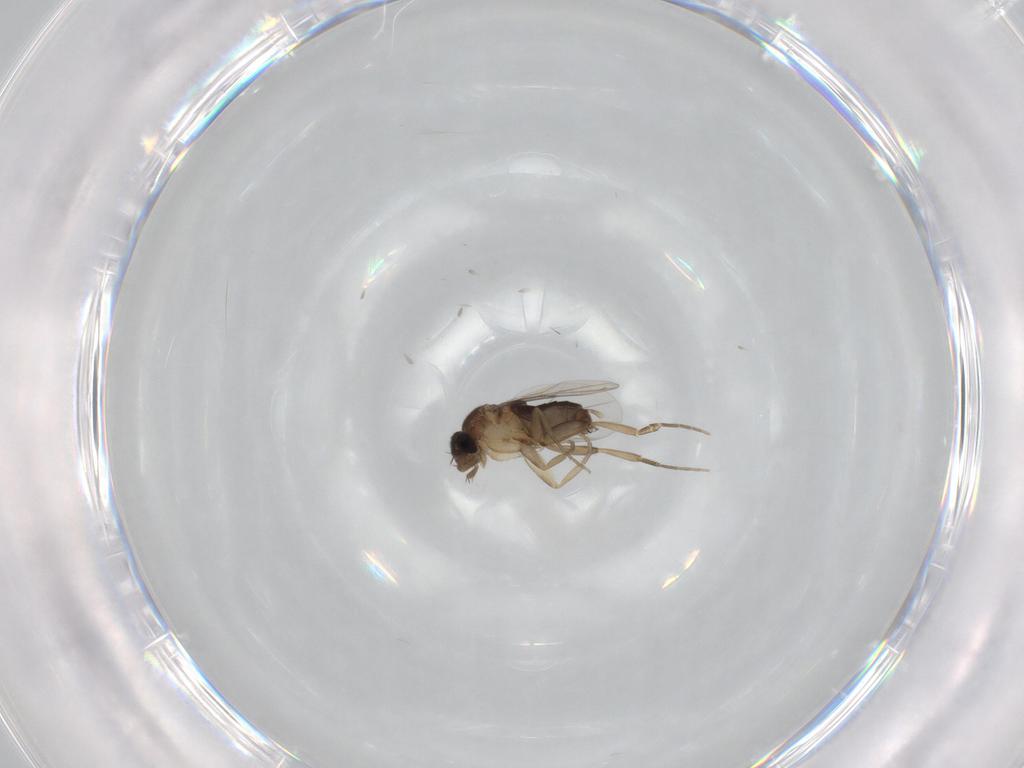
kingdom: Animalia
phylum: Arthropoda
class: Insecta
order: Diptera
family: Phoridae
